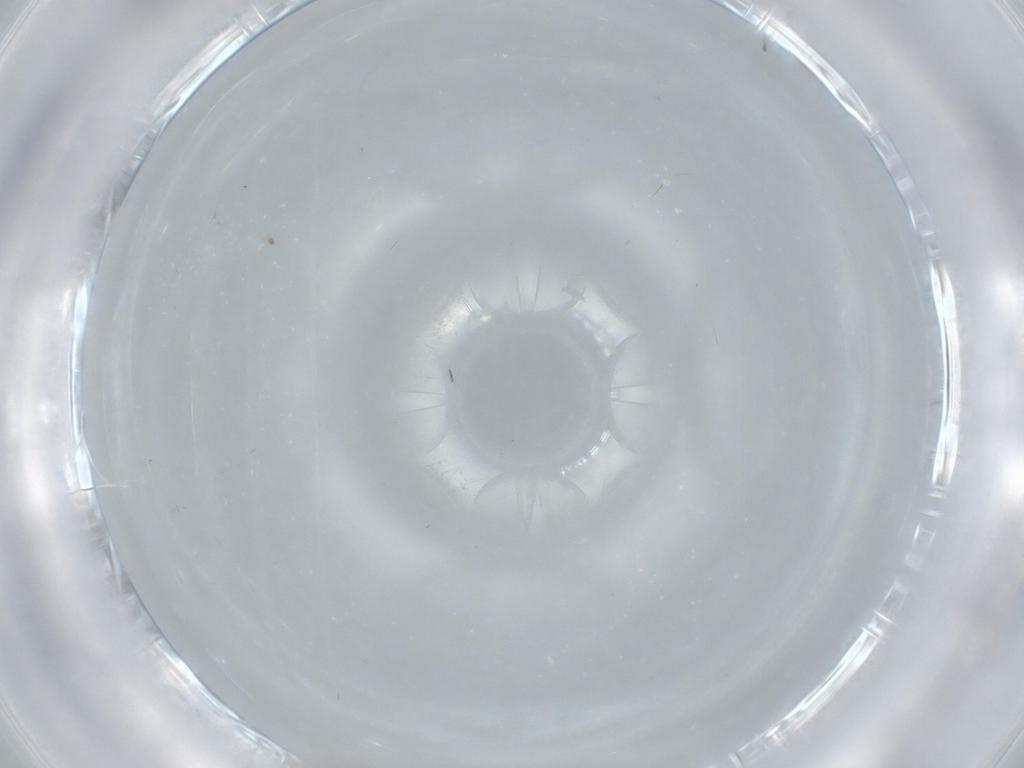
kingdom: Animalia
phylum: Arthropoda
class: Insecta
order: Diptera
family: Cecidomyiidae
